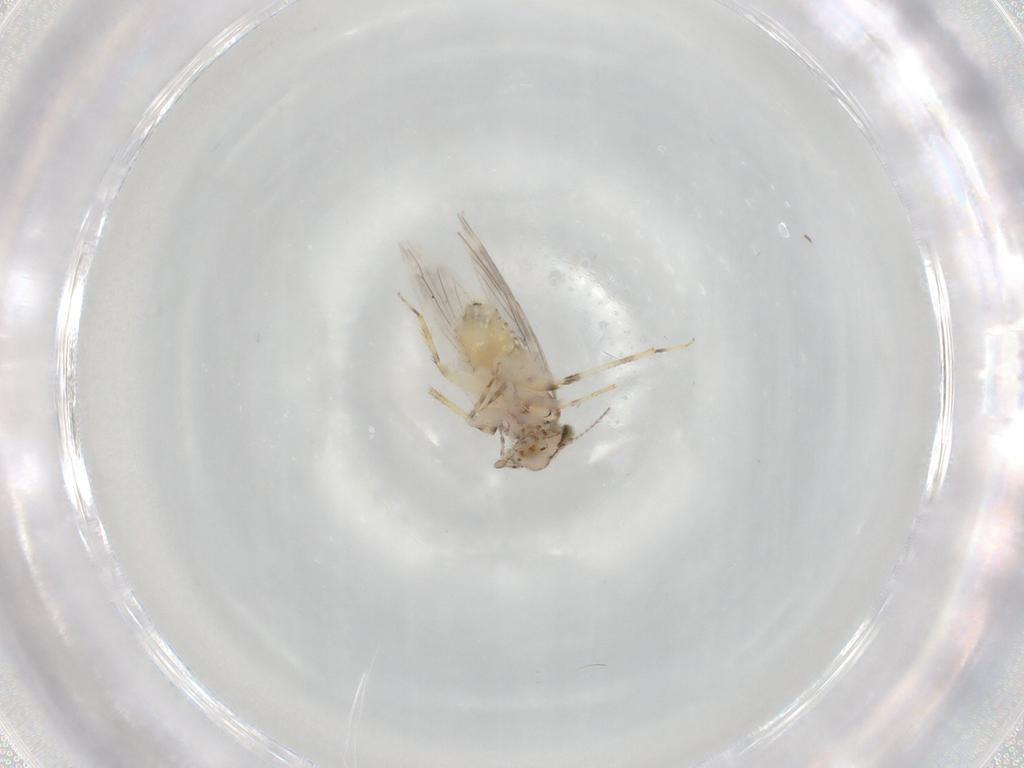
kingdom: Animalia
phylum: Arthropoda
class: Insecta
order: Psocodea
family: Lepidopsocidae
